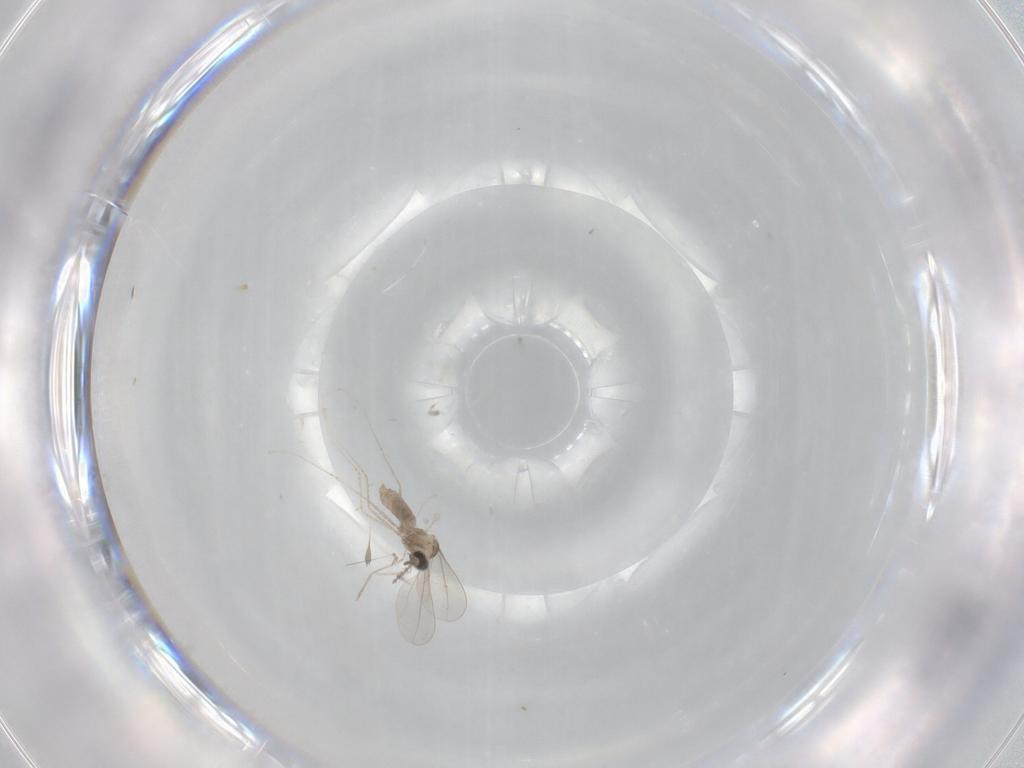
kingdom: Animalia
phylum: Arthropoda
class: Insecta
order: Diptera
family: Cecidomyiidae
